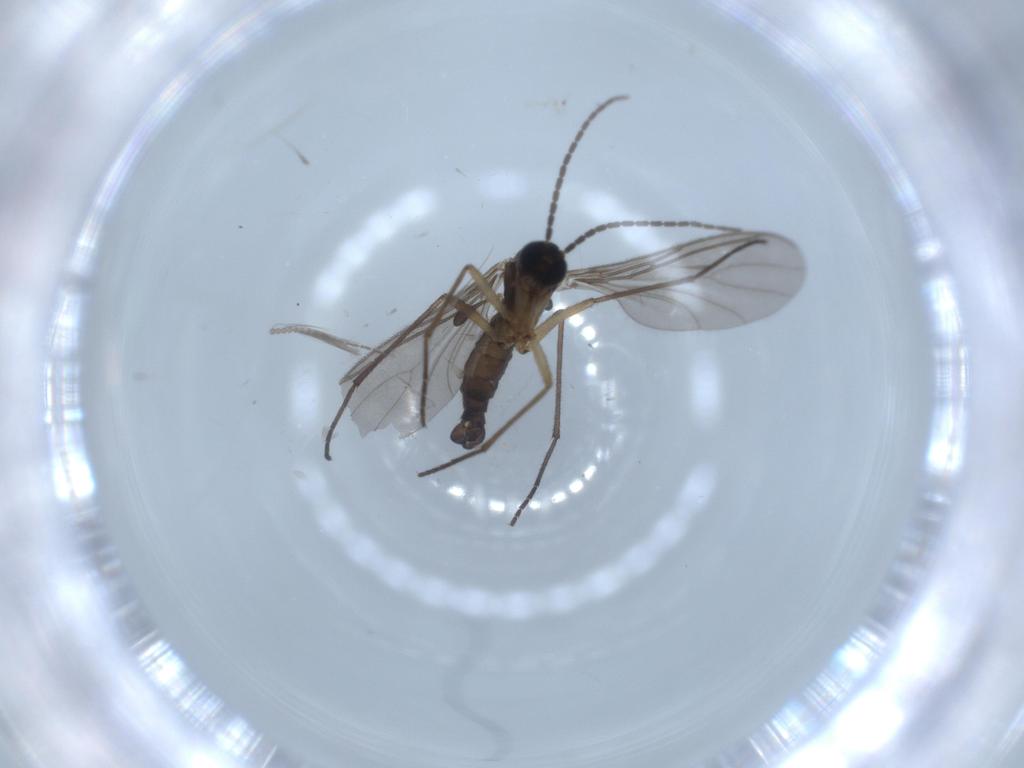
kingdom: Animalia
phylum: Arthropoda
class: Insecta
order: Diptera
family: Ceratopogonidae
